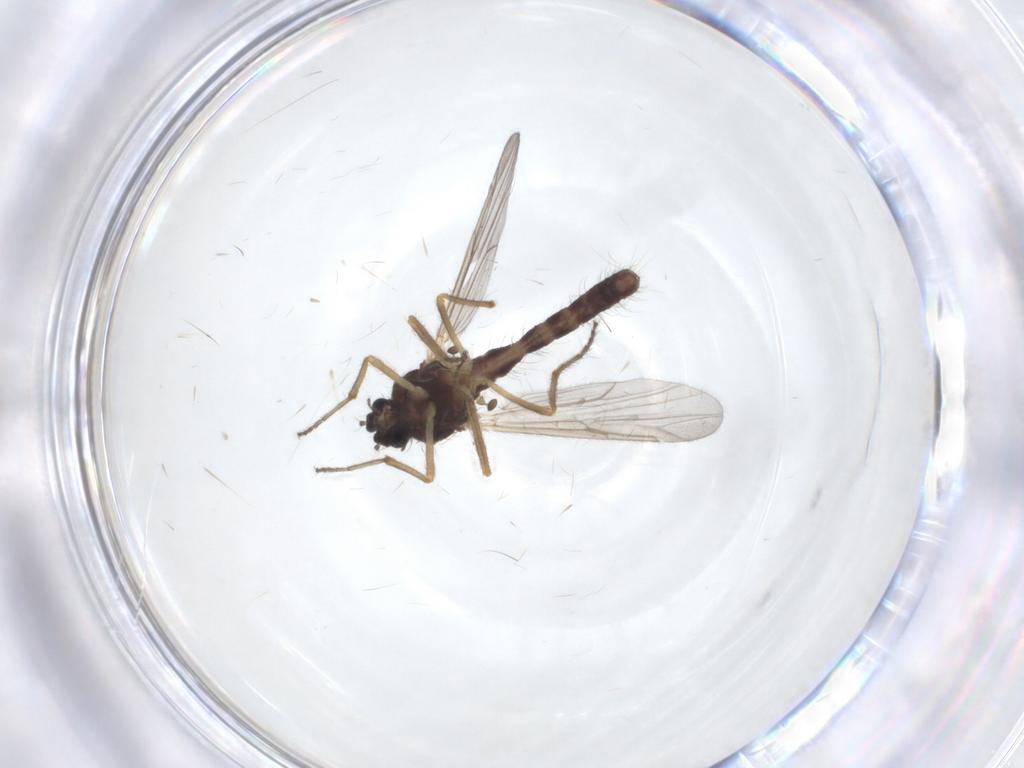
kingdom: Animalia
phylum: Arthropoda
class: Insecta
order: Diptera
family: Ceratopogonidae
